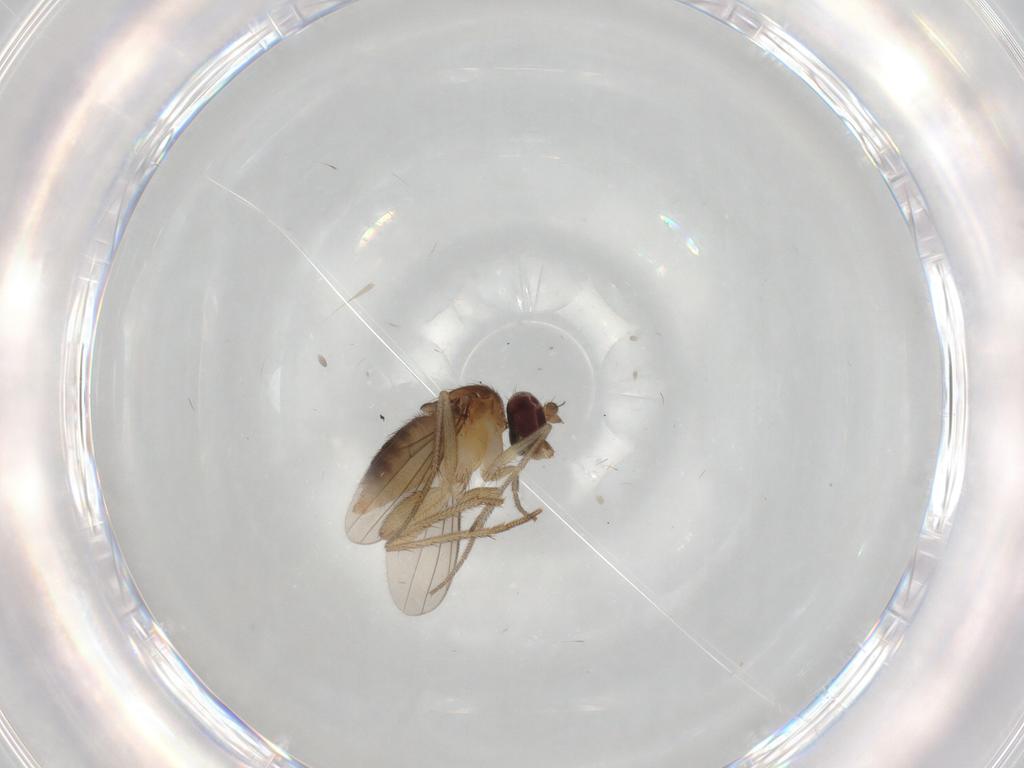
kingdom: Animalia
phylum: Arthropoda
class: Insecta
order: Diptera
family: Dolichopodidae
